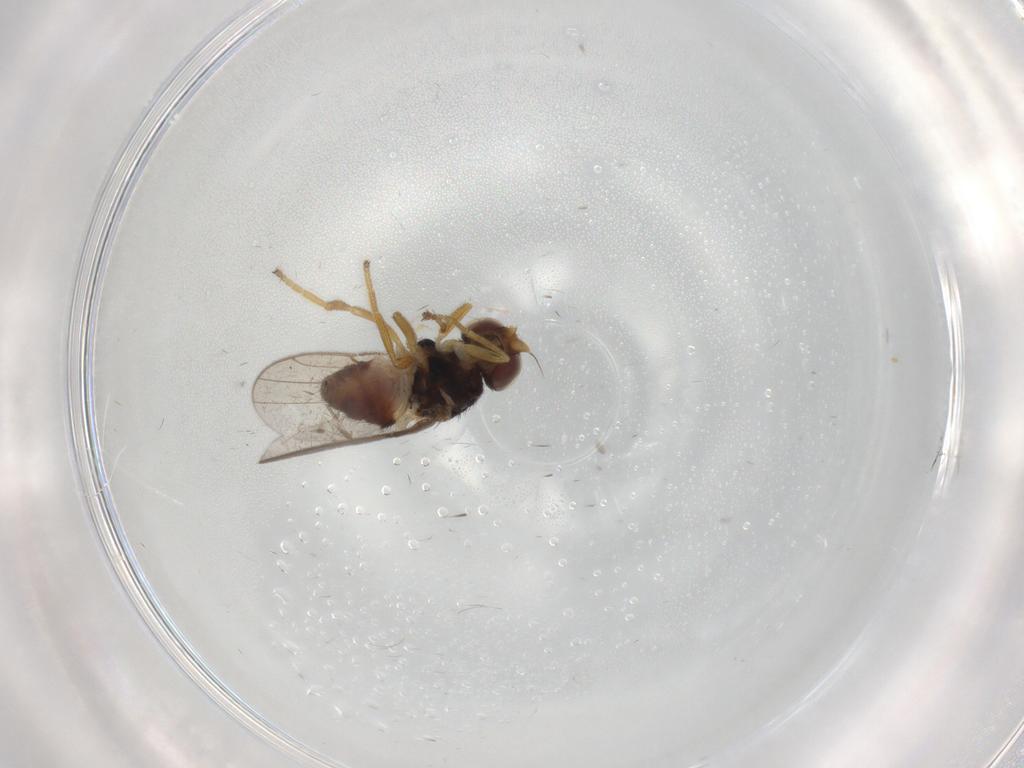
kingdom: Animalia
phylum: Arthropoda
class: Insecta
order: Diptera
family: Chloropidae
